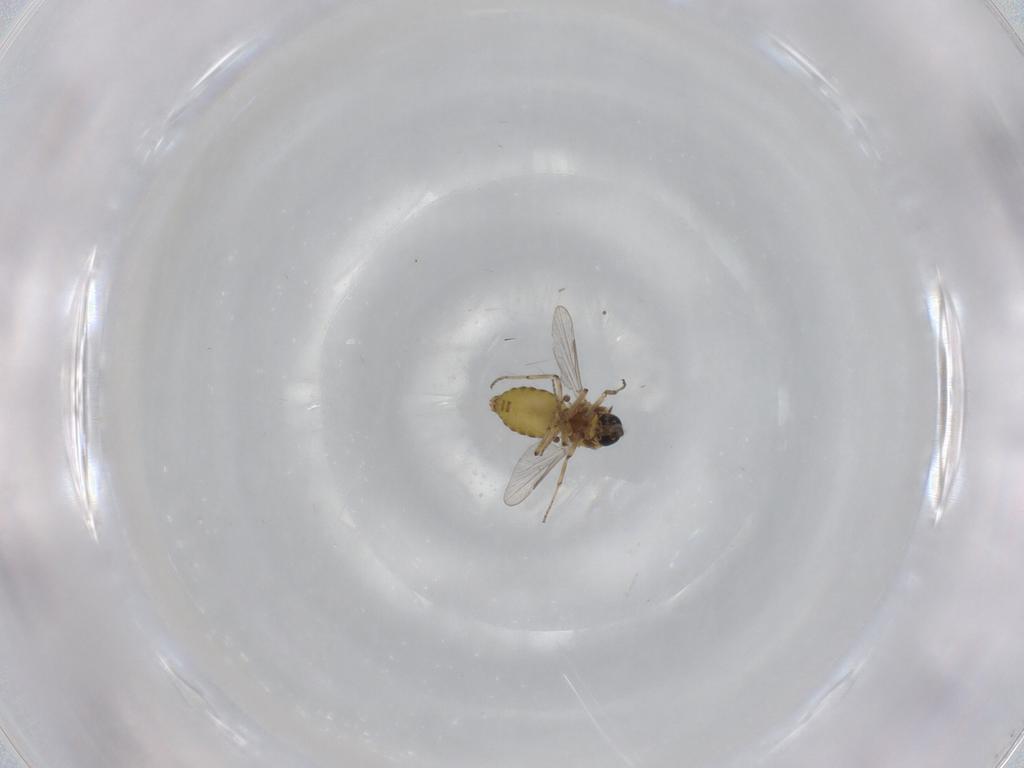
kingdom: Animalia
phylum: Arthropoda
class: Insecta
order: Diptera
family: Ceratopogonidae
